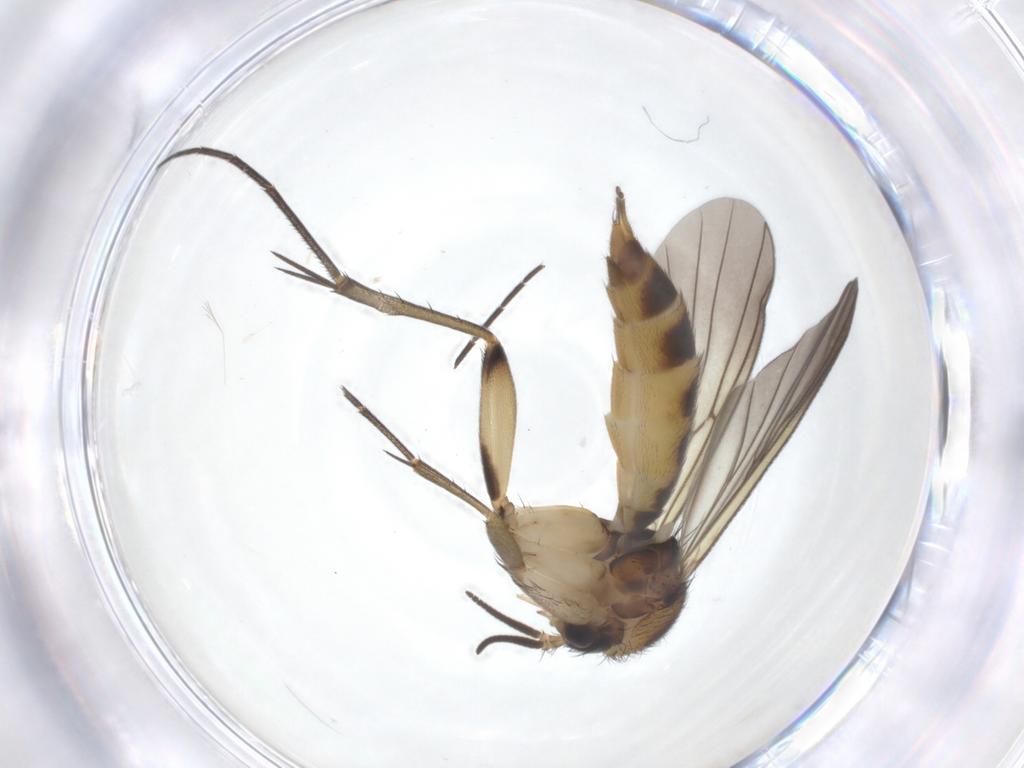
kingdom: Animalia
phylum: Arthropoda
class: Insecta
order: Diptera
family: Mycetophilidae
